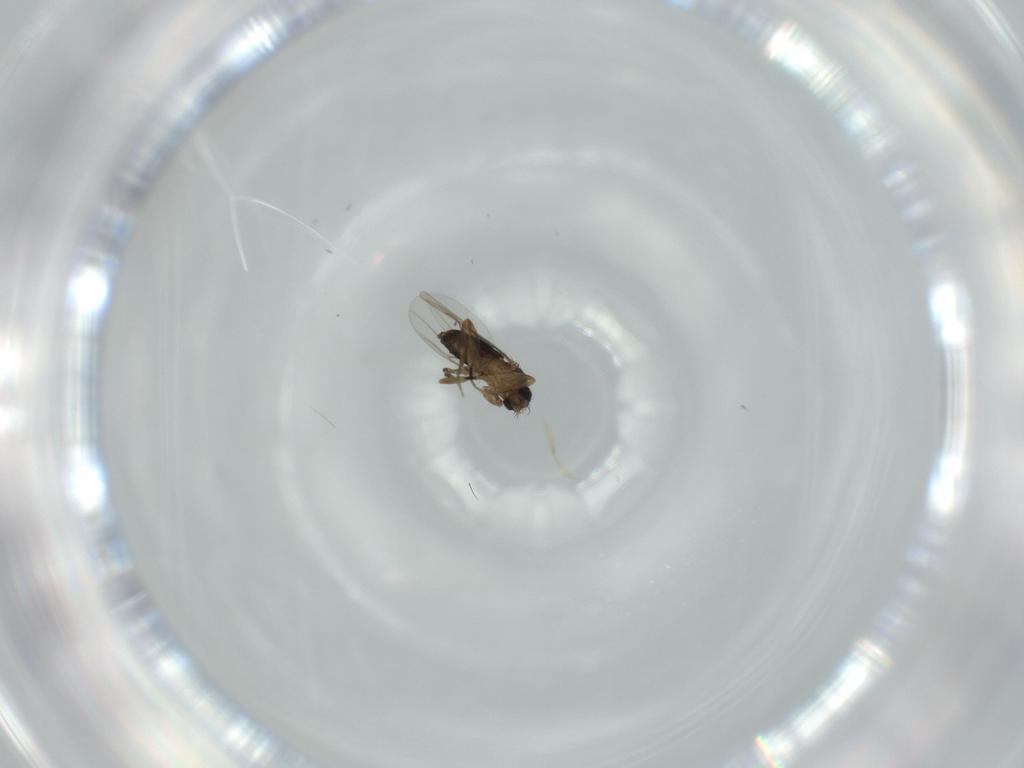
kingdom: Animalia
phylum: Arthropoda
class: Insecta
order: Diptera
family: Phoridae
